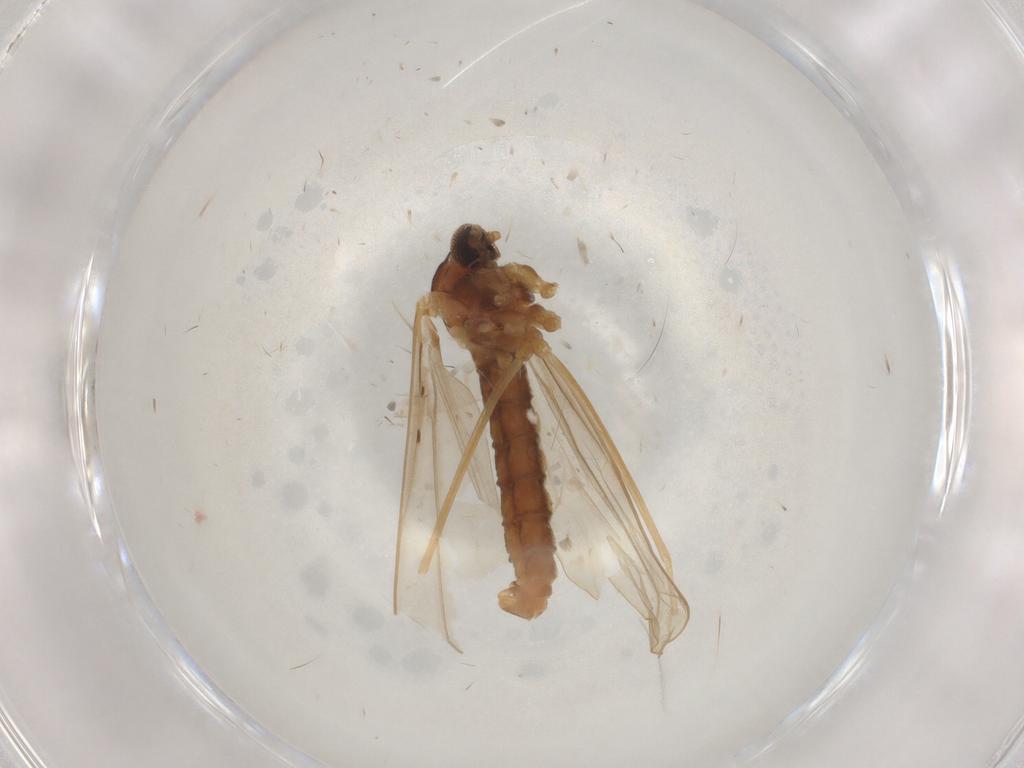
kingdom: Animalia
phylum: Arthropoda
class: Insecta
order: Diptera
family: Cecidomyiidae
